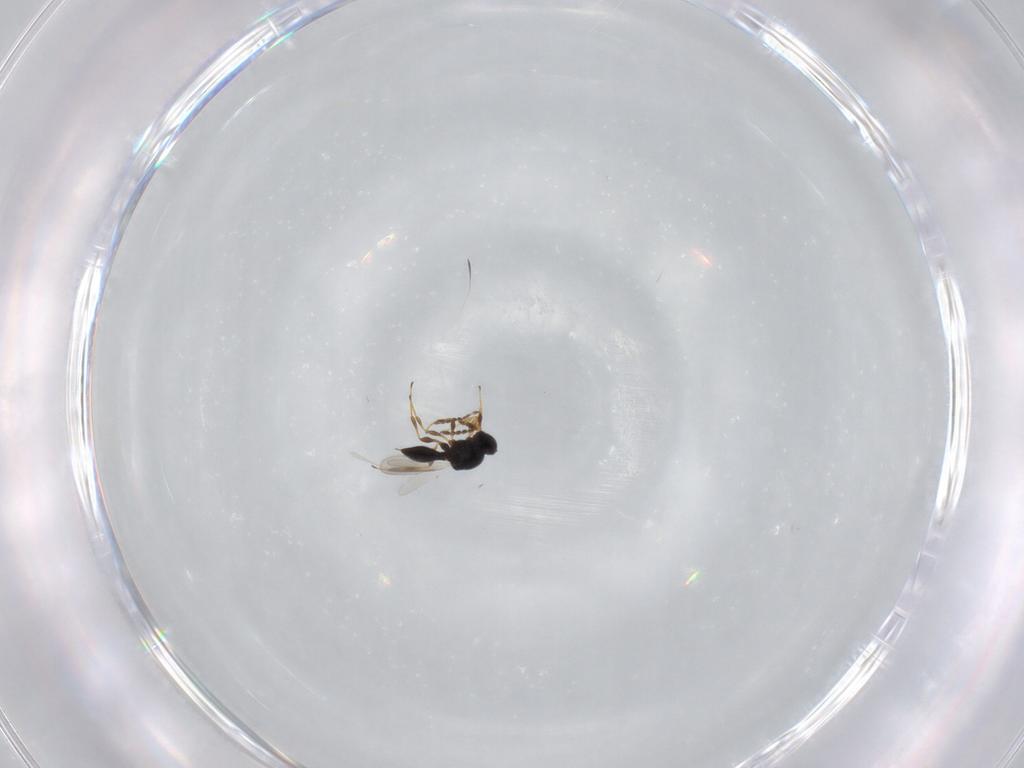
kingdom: Animalia
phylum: Arthropoda
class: Insecta
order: Hymenoptera
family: Platygastridae
